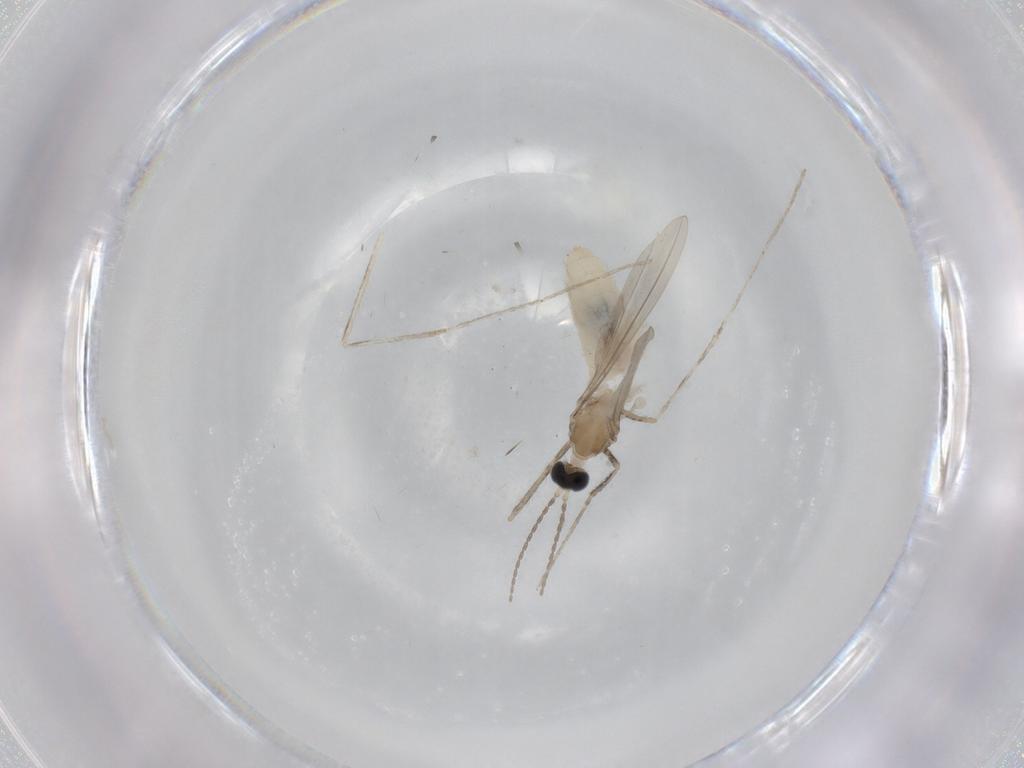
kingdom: Animalia
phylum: Arthropoda
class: Insecta
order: Diptera
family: Tabanidae
